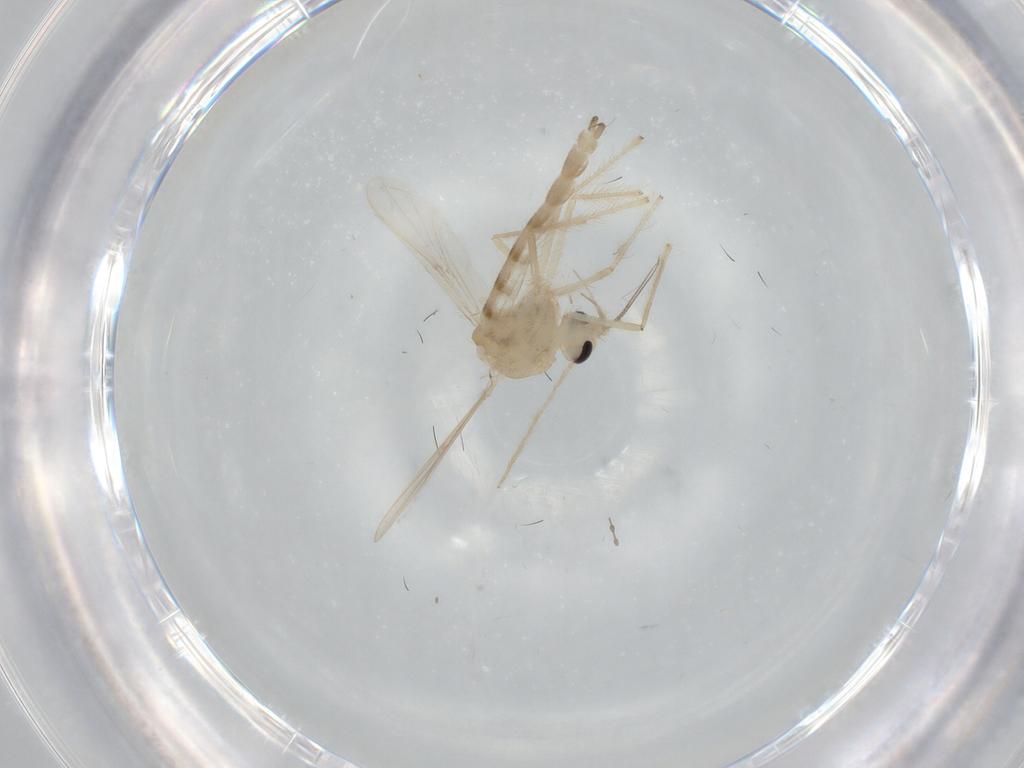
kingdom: Animalia
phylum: Arthropoda
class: Insecta
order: Diptera
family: Chironomidae
